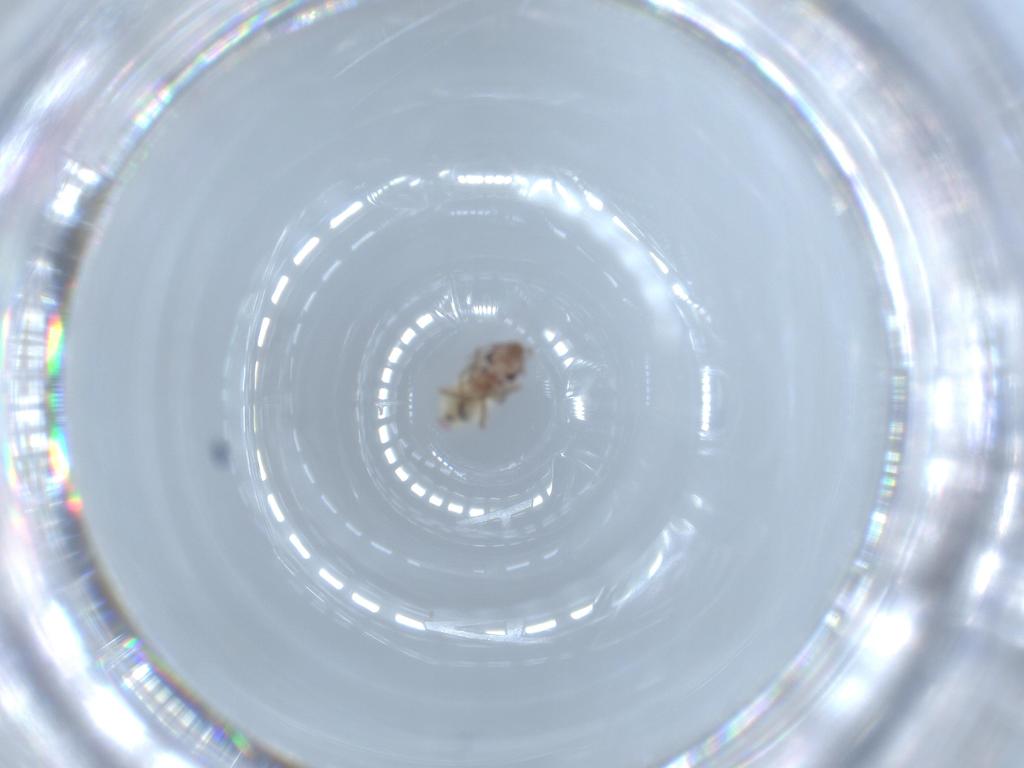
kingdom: Animalia
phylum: Arthropoda
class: Insecta
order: Psocodea
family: Lepidopsocidae
